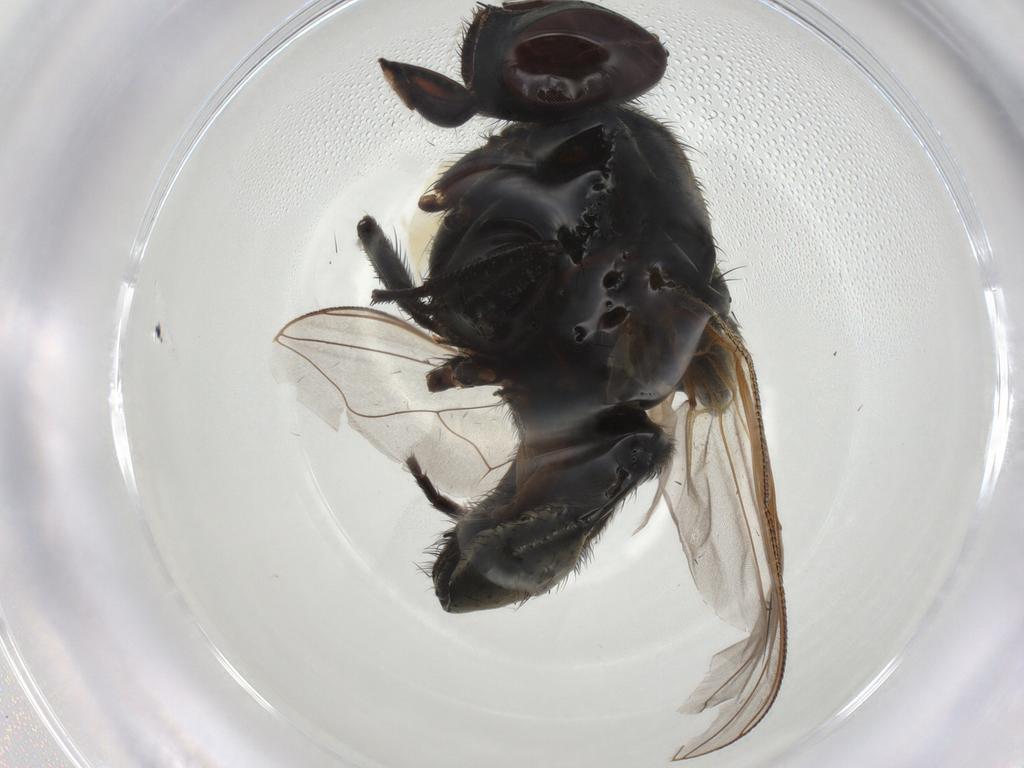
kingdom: Animalia
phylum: Arthropoda
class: Insecta
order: Diptera
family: Muscidae
